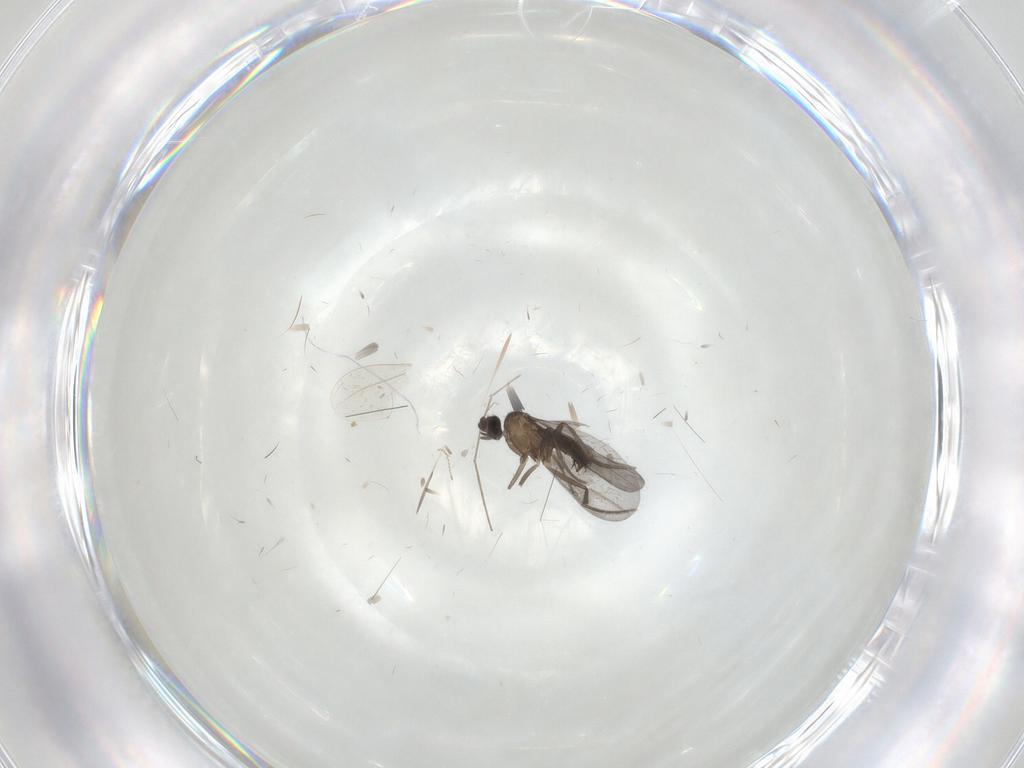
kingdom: Animalia
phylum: Arthropoda
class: Insecta
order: Diptera
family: Phoridae
